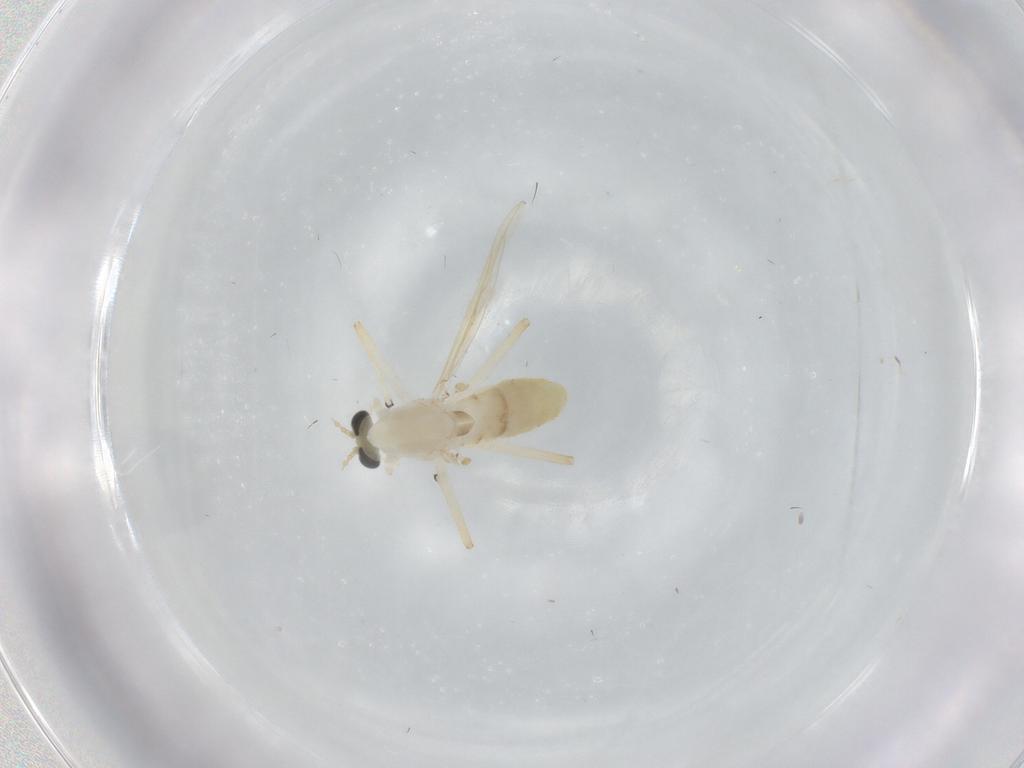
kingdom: Animalia
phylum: Arthropoda
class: Insecta
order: Diptera
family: Chironomidae
